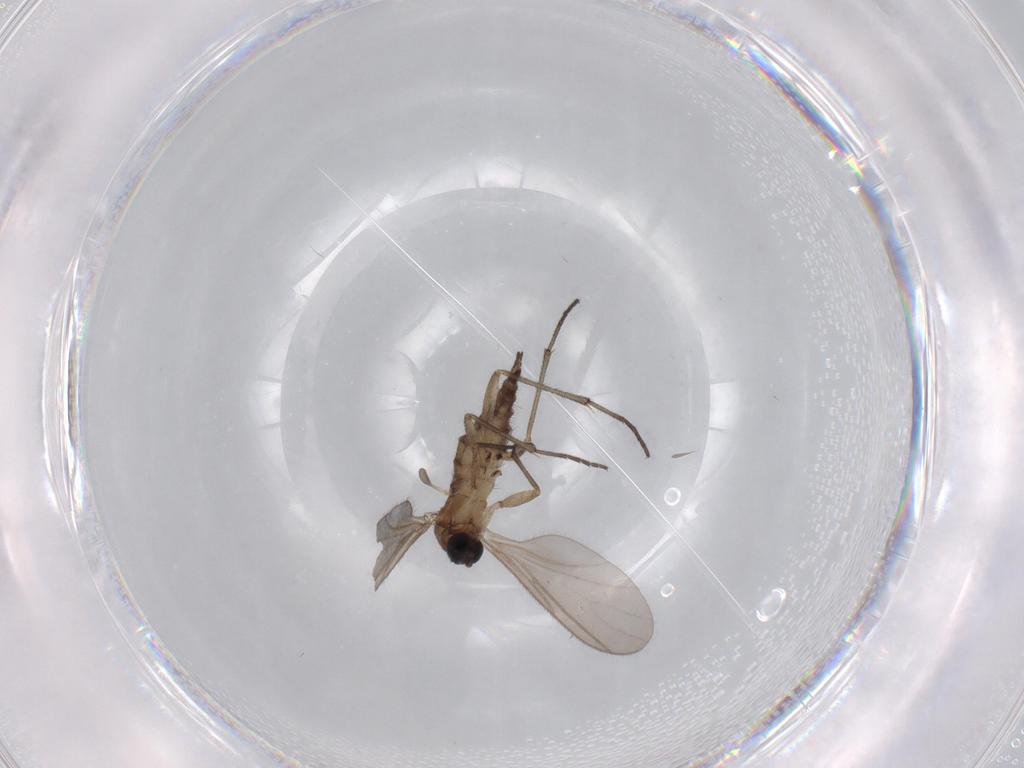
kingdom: Animalia
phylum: Arthropoda
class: Insecta
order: Diptera
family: Sciaridae
